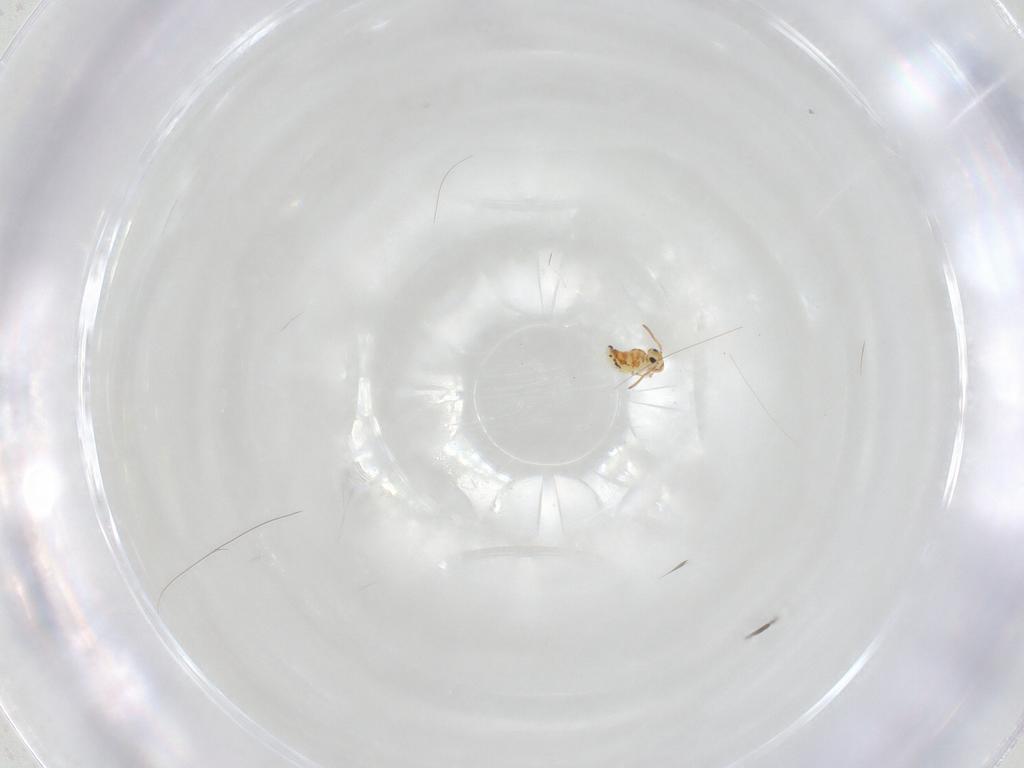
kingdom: Animalia
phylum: Arthropoda
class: Collembola
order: Symphypleona
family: Bourletiellidae
